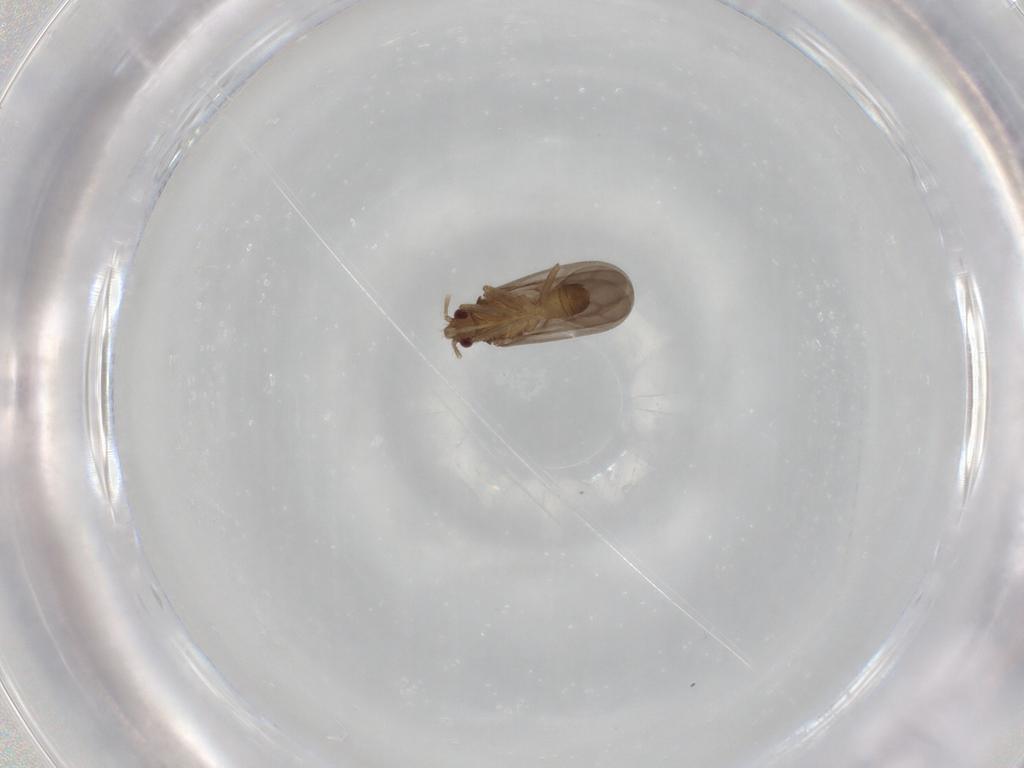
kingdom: Animalia
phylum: Arthropoda
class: Insecta
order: Hemiptera
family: Ceratocombidae
